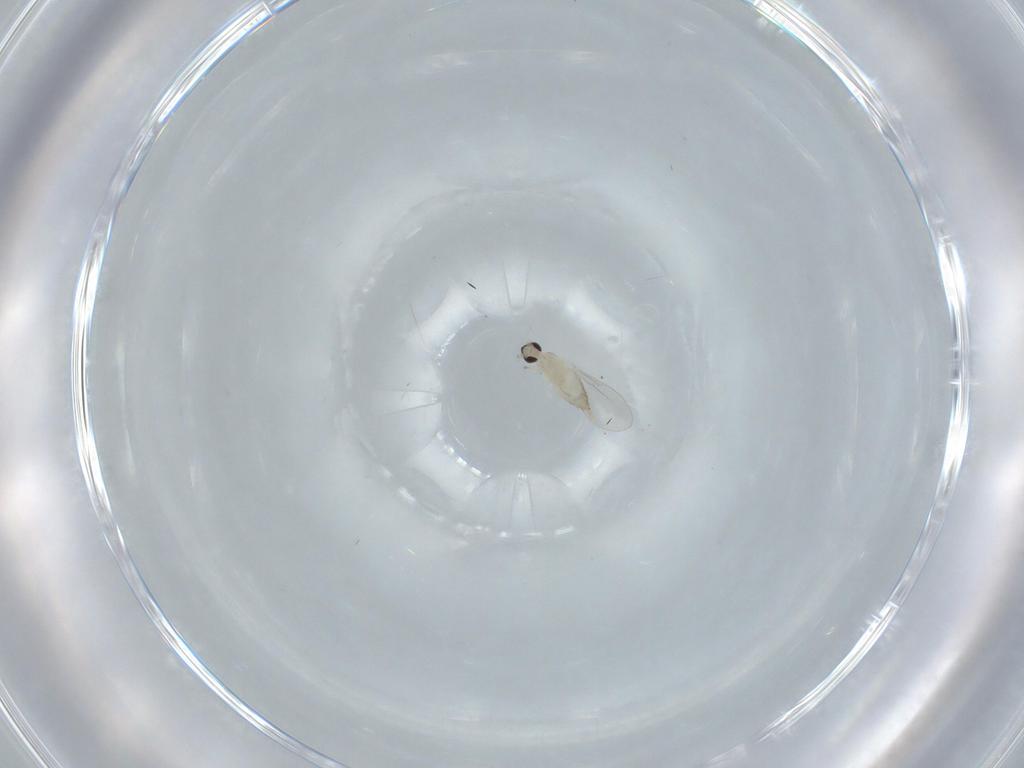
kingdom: Animalia
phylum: Arthropoda
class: Insecta
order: Diptera
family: Cecidomyiidae
